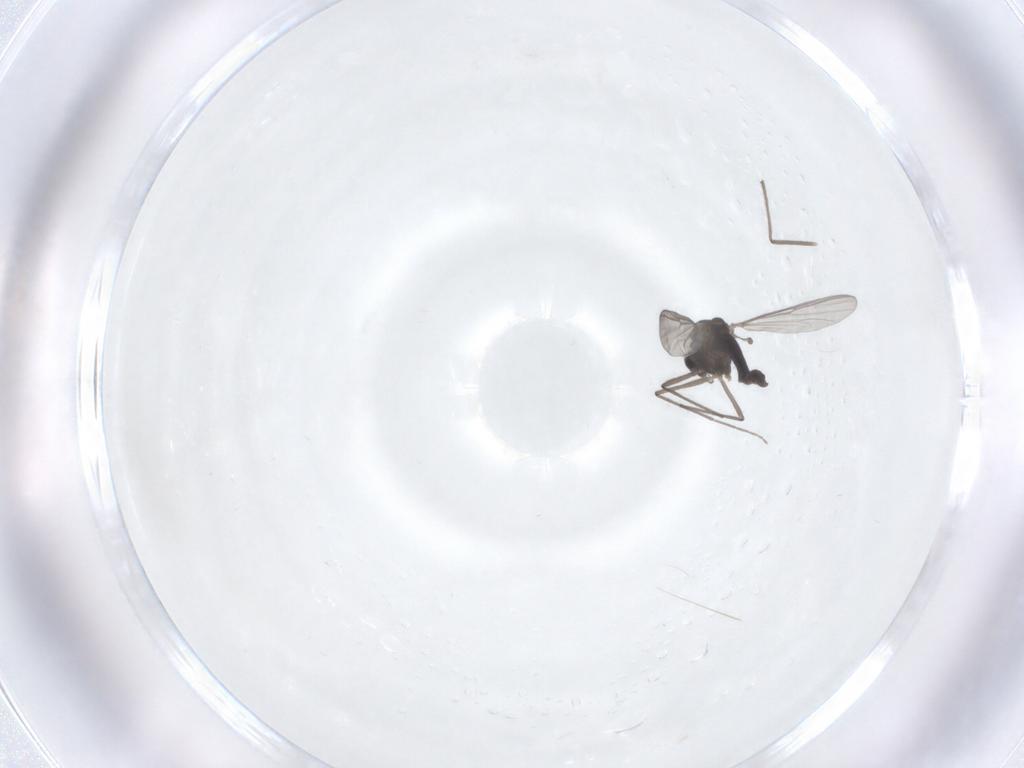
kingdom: Animalia
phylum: Arthropoda
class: Insecta
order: Diptera
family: Chironomidae
